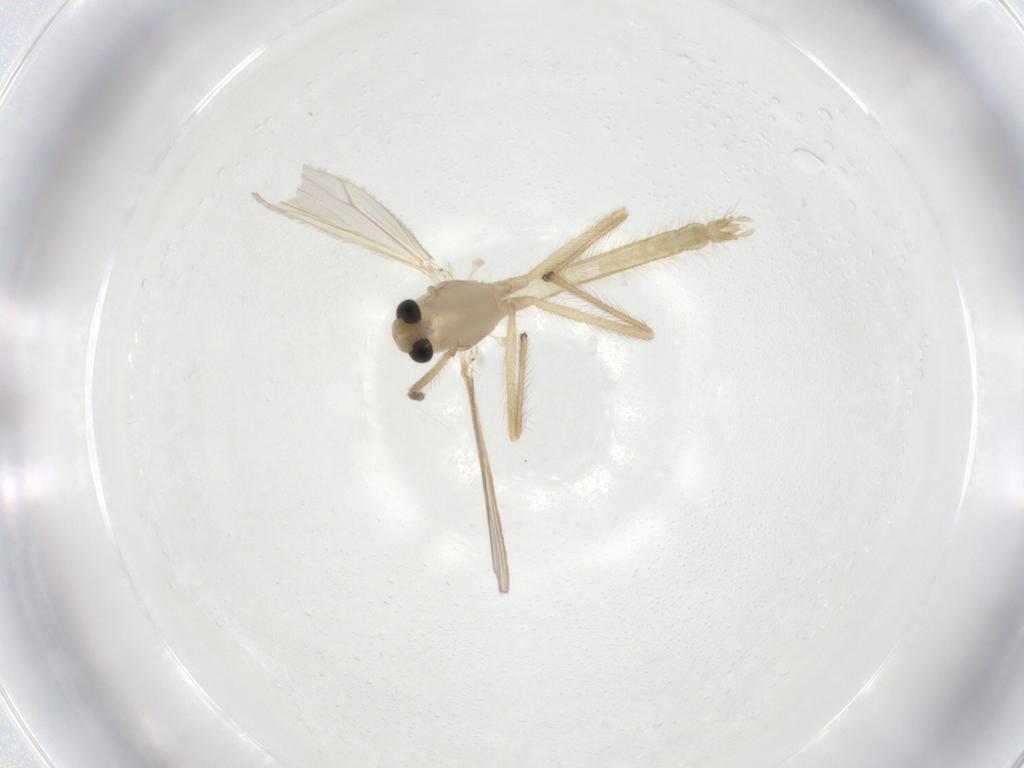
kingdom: Animalia
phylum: Arthropoda
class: Insecta
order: Diptera
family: Chironomidae
